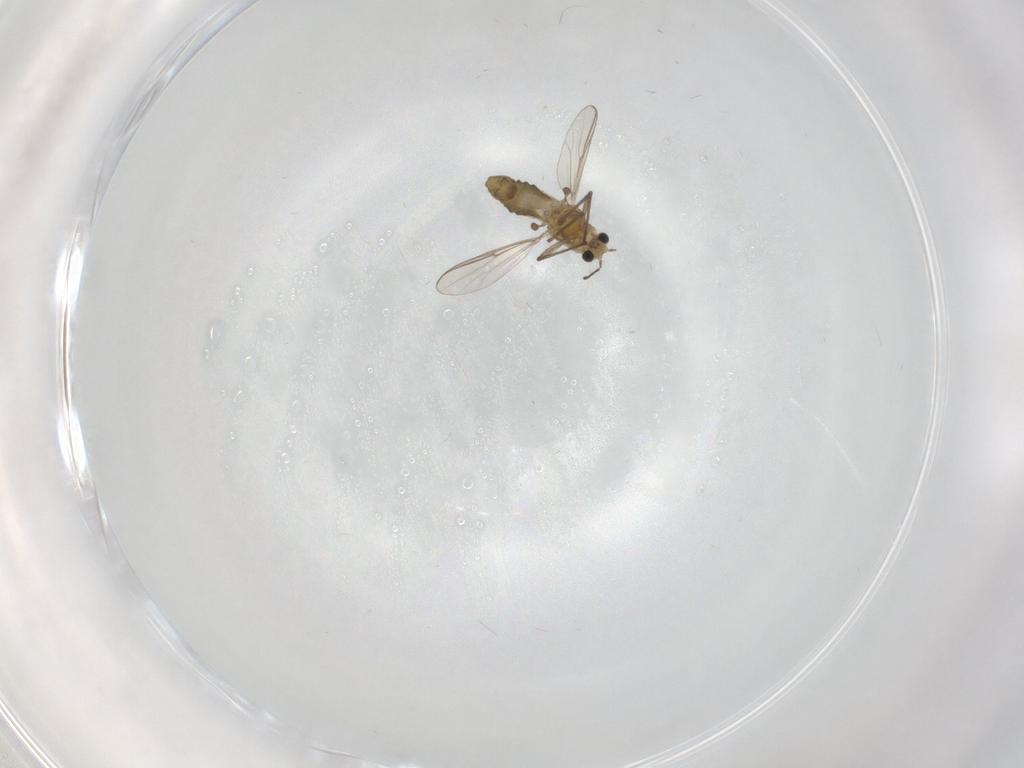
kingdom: Animalia
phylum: Arthropoda
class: Insecta
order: Diptera
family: Chironomidae
